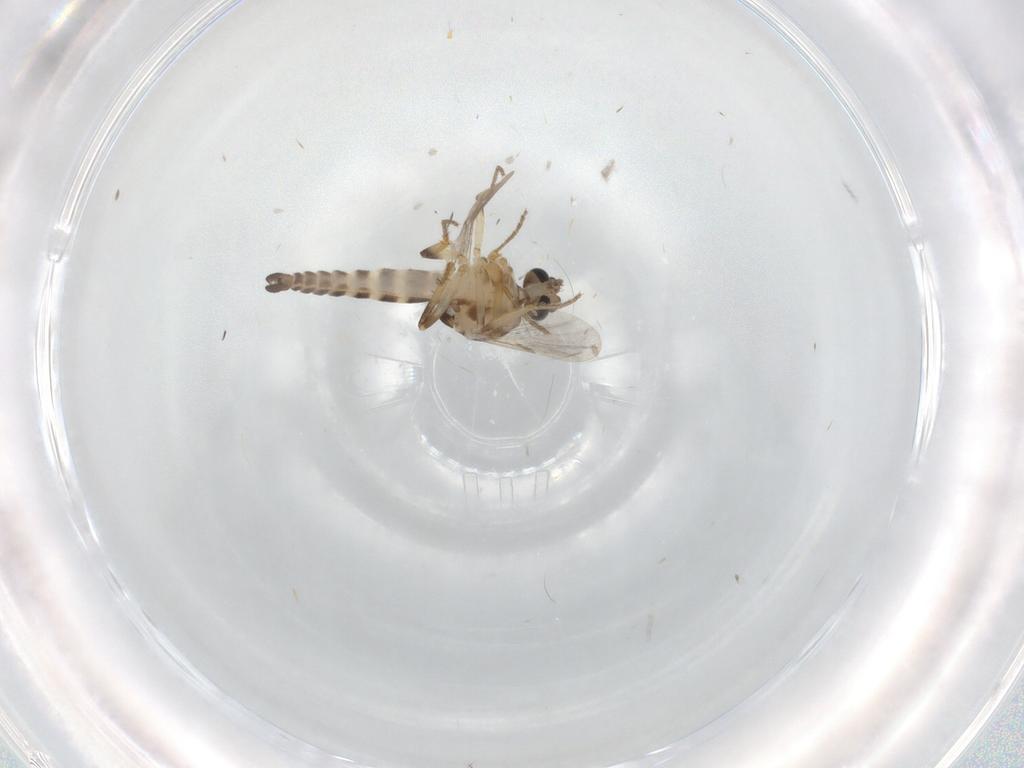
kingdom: Animalia
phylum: Arthropoda
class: Insecta
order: Diptera
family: Ceratopogonidae
